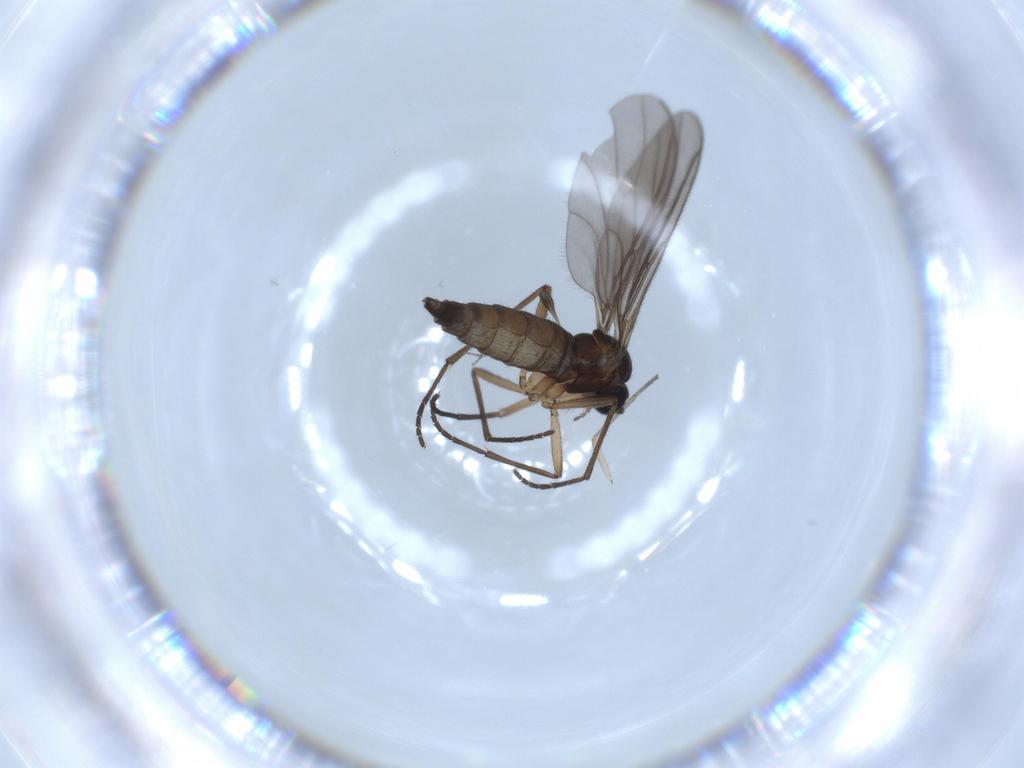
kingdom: Animalia
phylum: Arthropoda
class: Insecta
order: Diptera
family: Cecidomyiidae
